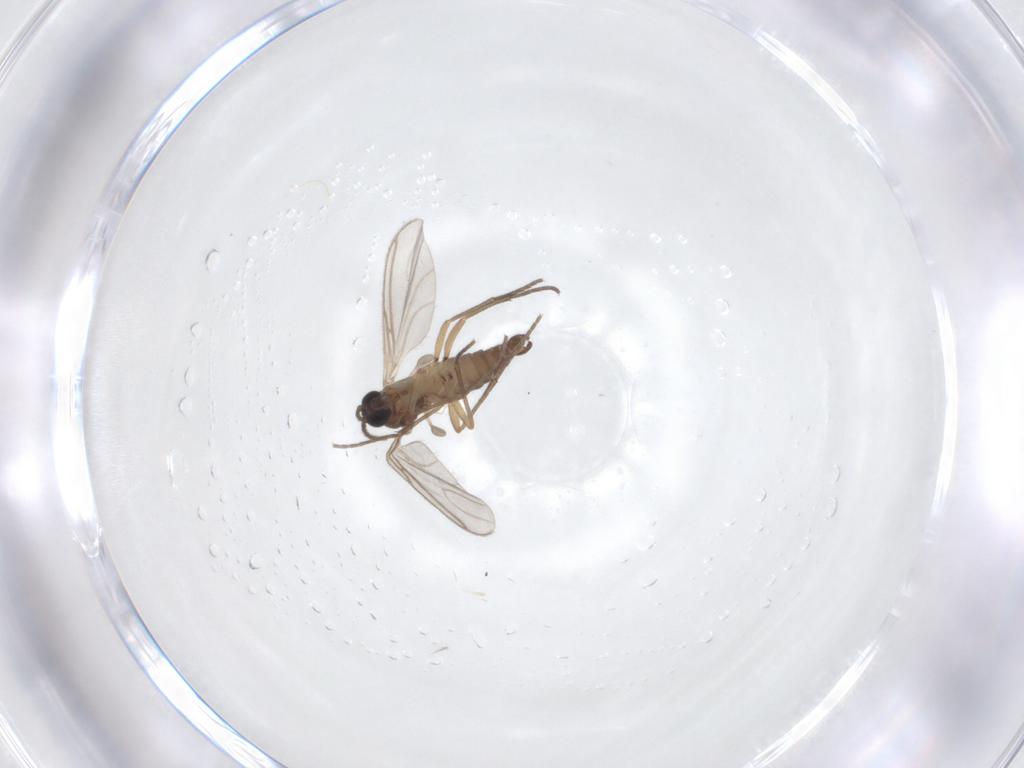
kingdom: Animalia
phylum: Arthropoda
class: Insecta
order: Diptera
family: Sciaridae
